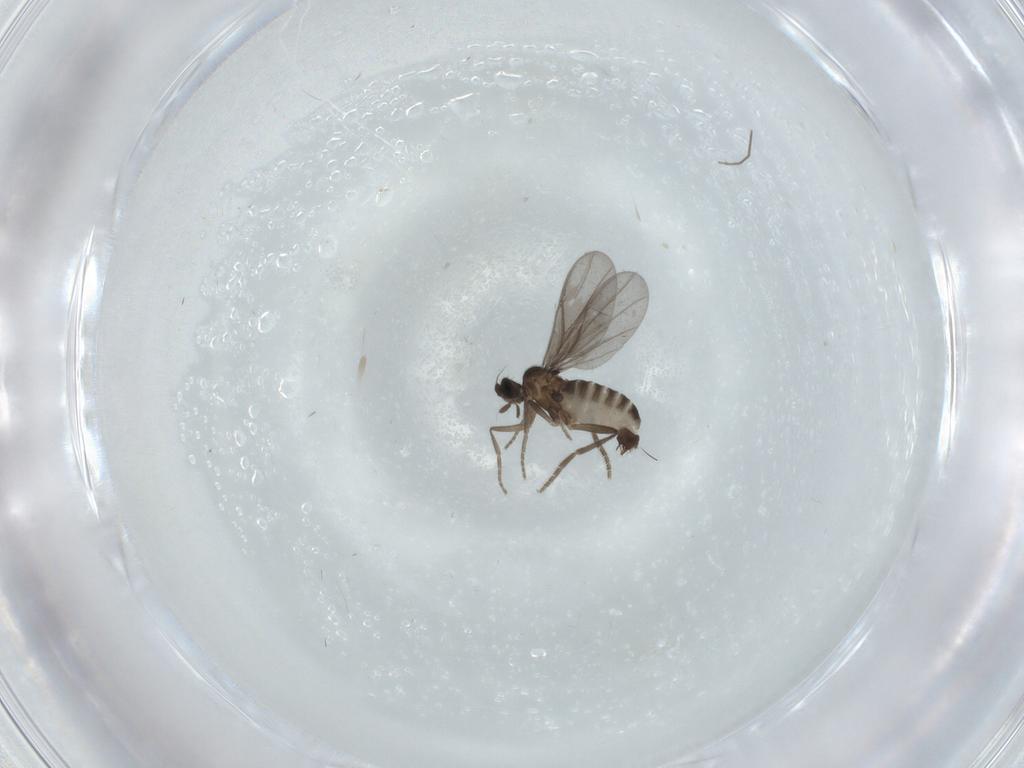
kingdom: Animalia
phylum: Arthropoda
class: Insecta
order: Diptera
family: Phoridae
